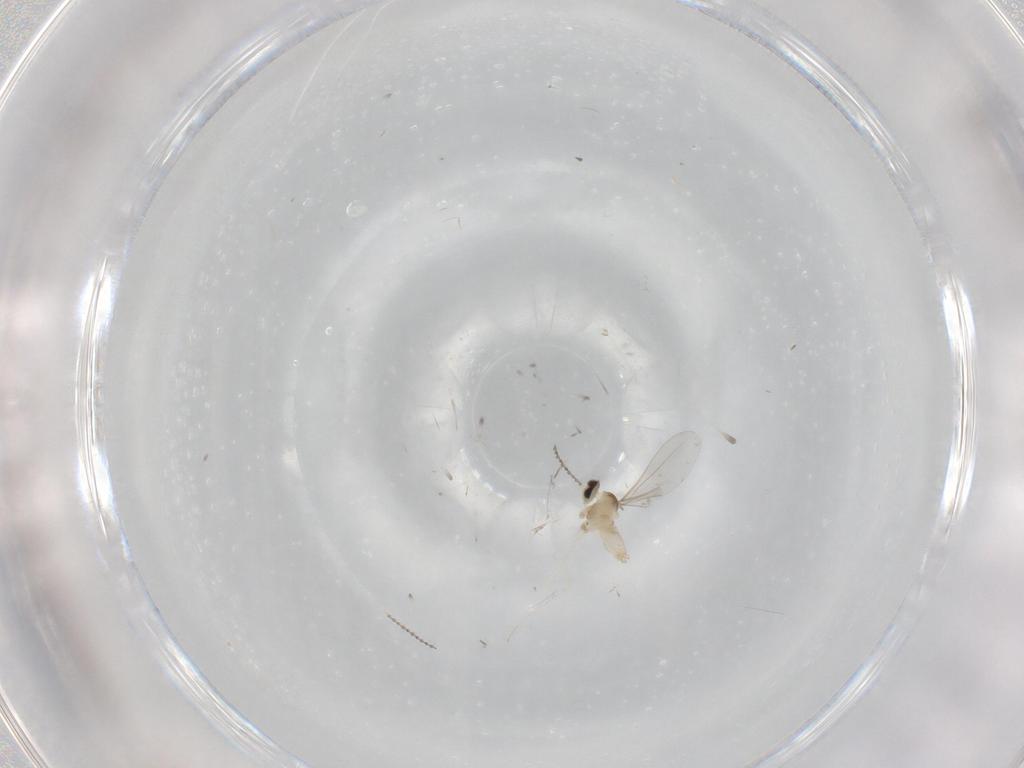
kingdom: Animalia
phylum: Arthropoda
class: Insecta
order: Diptera
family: Cecidomyiidae
